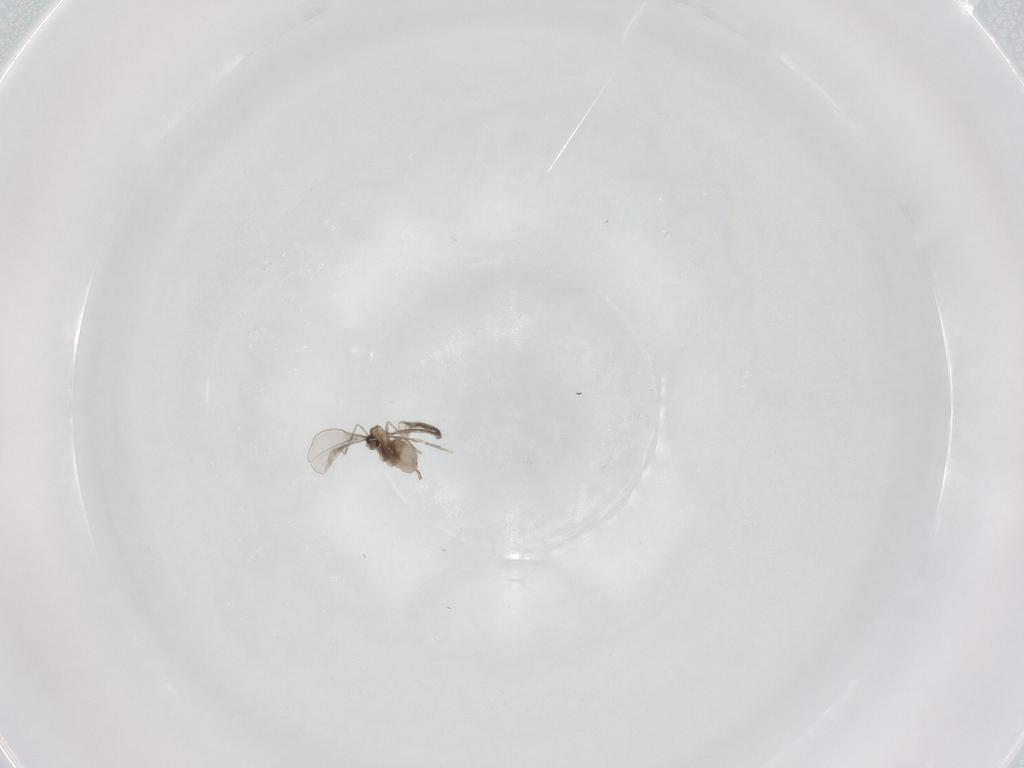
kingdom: Animalia
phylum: Arthropoda
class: Insecta
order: Diptera
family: Cecidomyiidae
